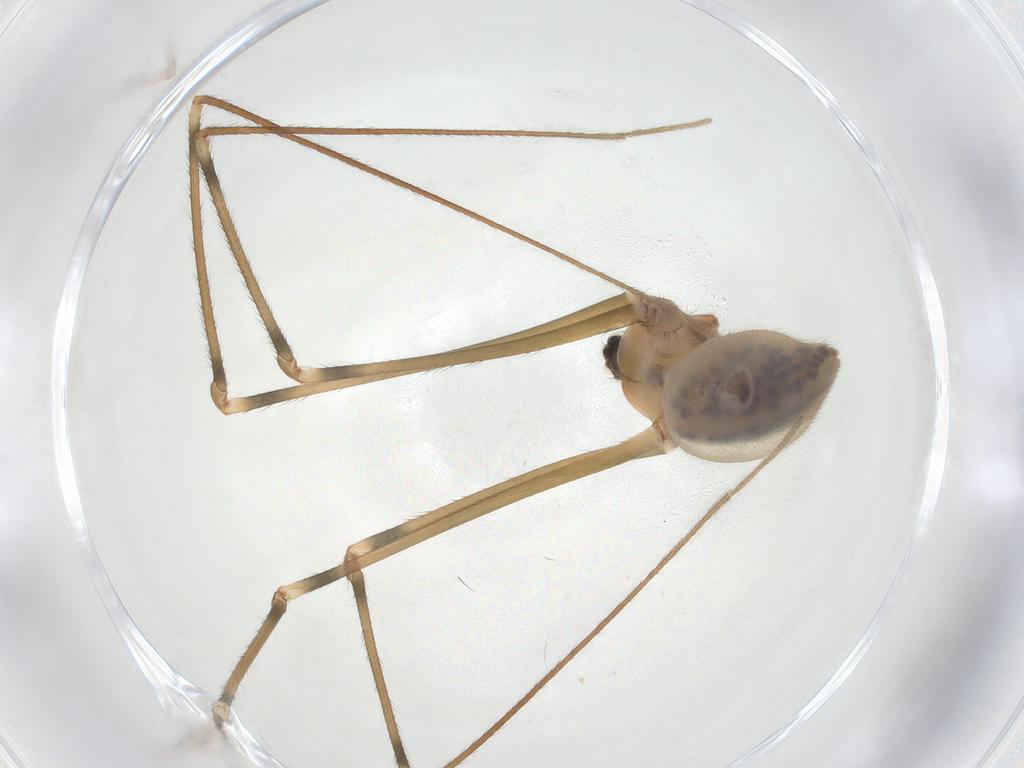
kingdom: Animalia
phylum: Arthropoda
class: Arachnida
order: Araneae
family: Pholcidae
